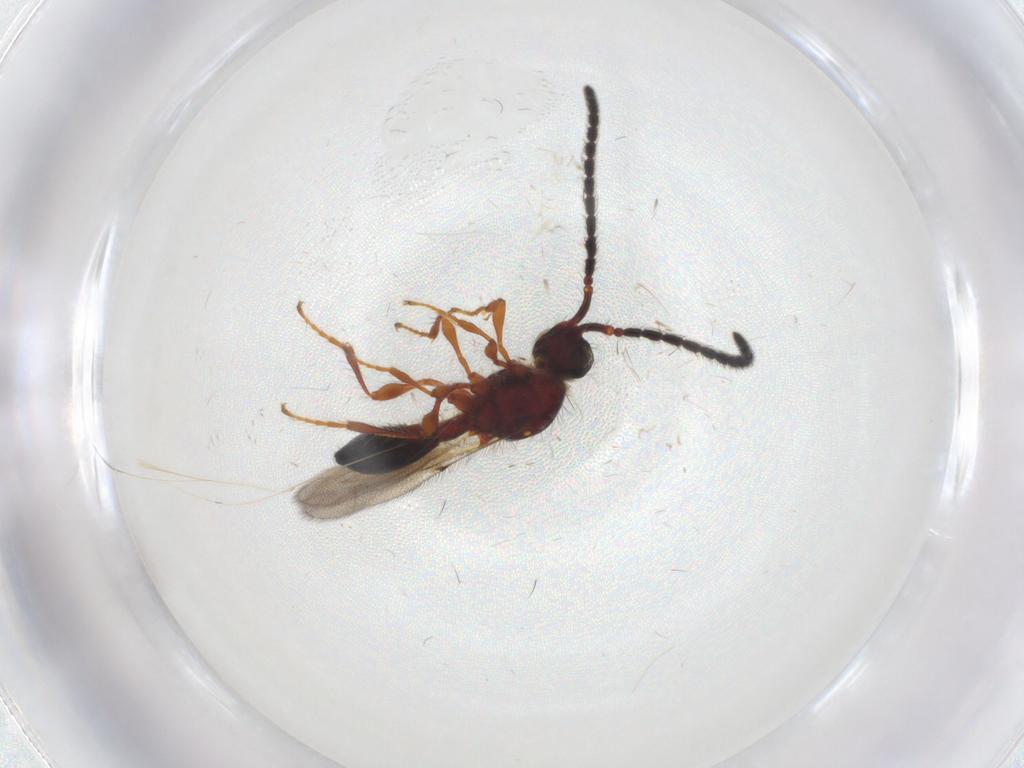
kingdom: Animalia
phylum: Arthropoda
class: Insecta
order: Hymenoptera
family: Diapriidae
